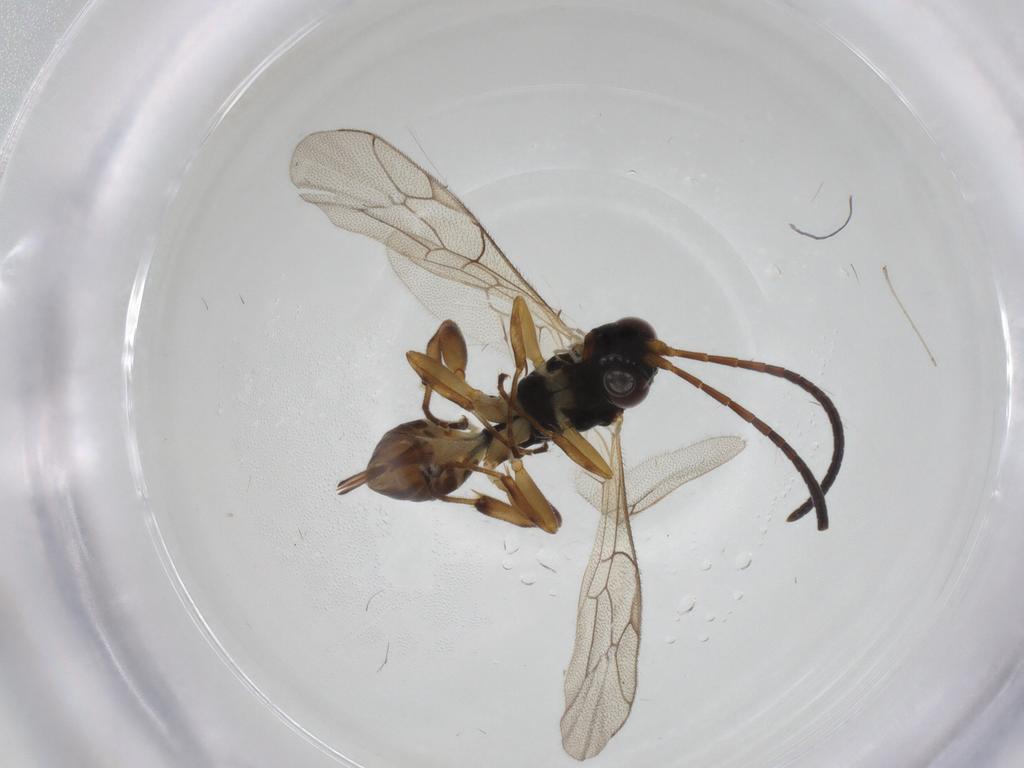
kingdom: Animalia
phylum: Arthropoda
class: Insecta
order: Hymenoptera
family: Ichneumonidae
